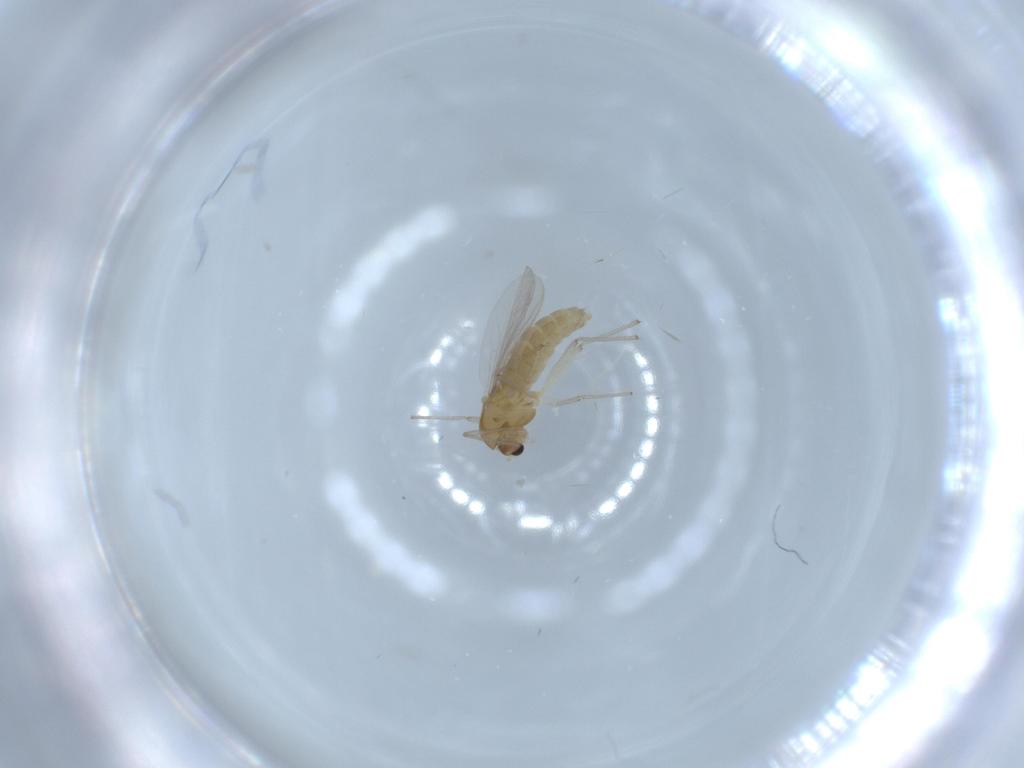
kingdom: Animalia
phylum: Arthropoda
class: Insecta
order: Diptera
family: Chironomidae
